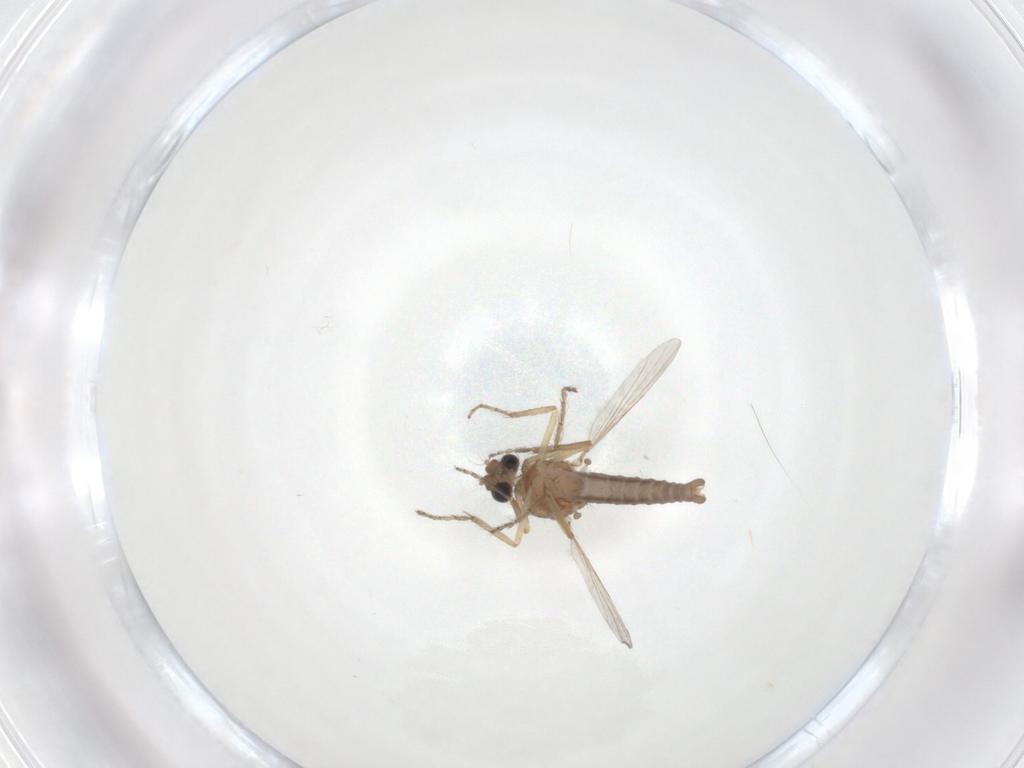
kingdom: Animalia
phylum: Arthropoda
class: Insecta
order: Diptera
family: Ceratopogonidae
